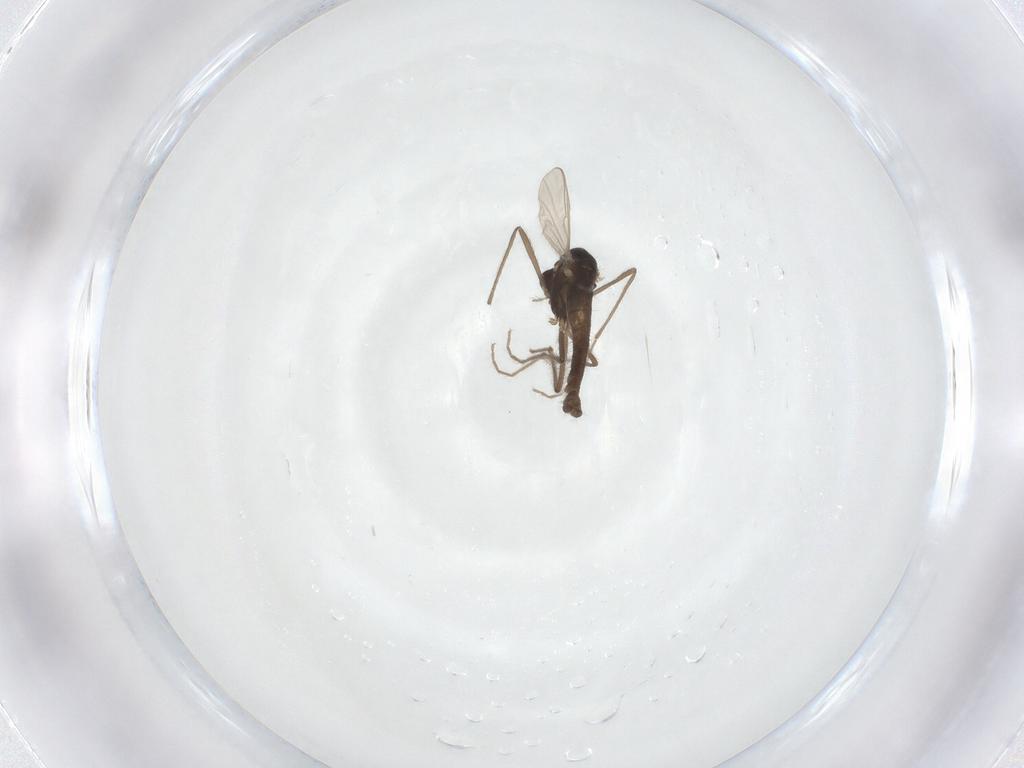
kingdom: Animalia
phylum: Arthropoda
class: Insecta
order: Diptera
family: Chironomidae
